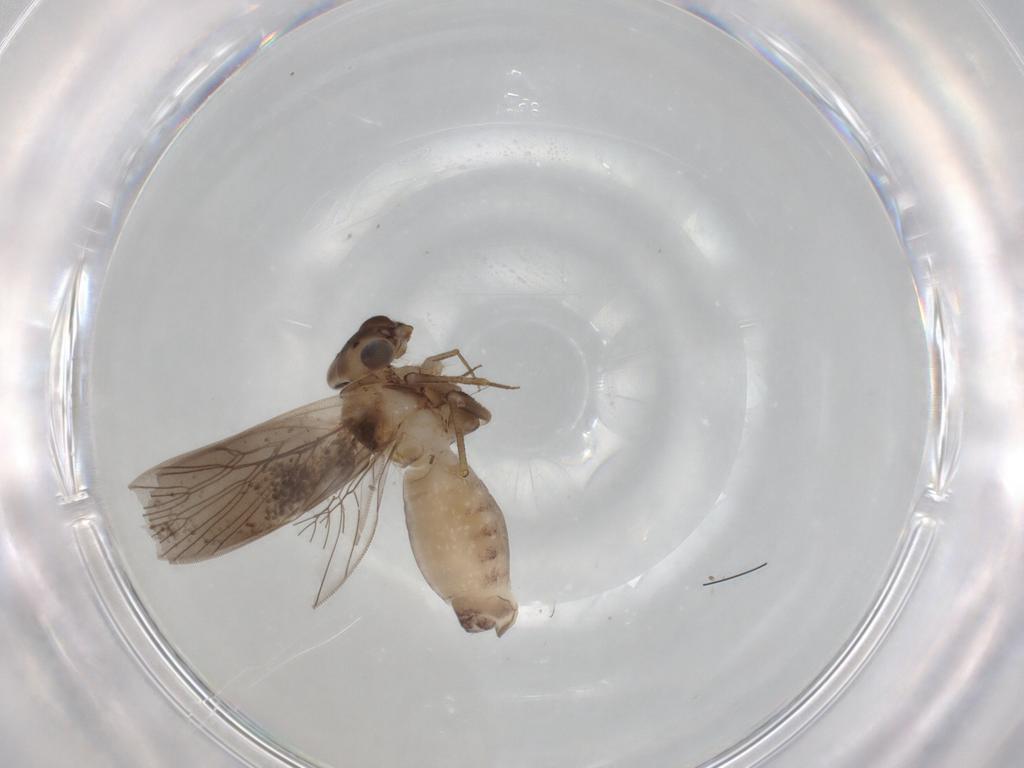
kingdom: Animalia
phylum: Arthropoda
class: Insecta
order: Psocodea
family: Lepidopsocidae
